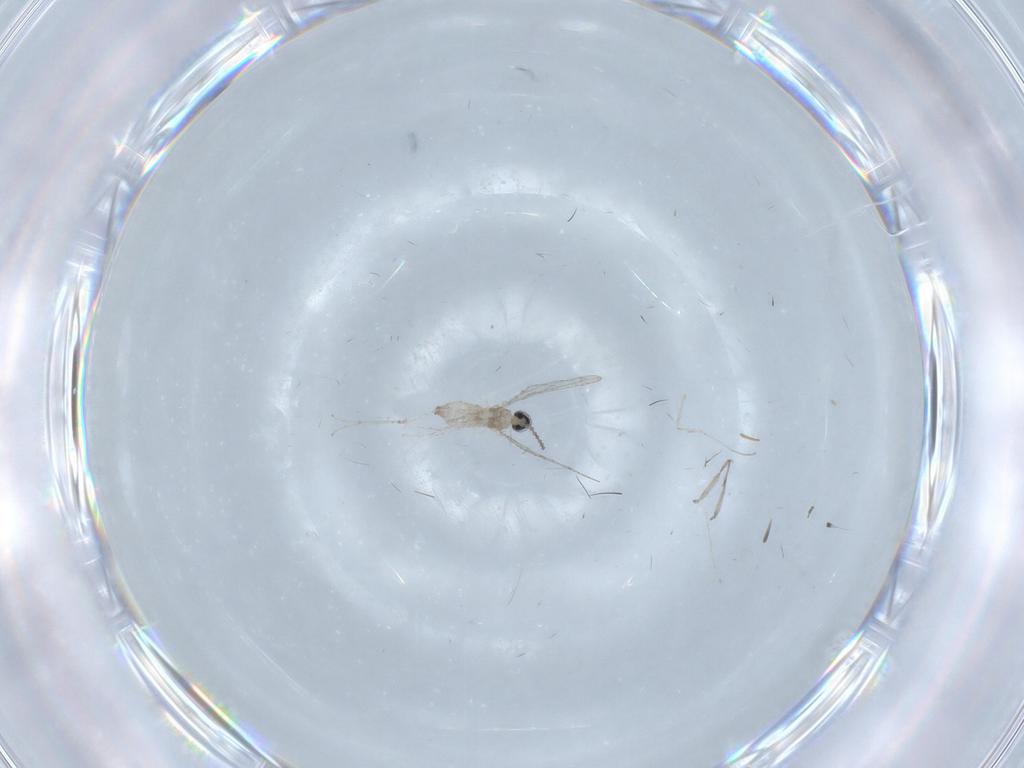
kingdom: Animalia
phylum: Arthropoda
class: Insecta
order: Diptera
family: Cecidomyiidae
